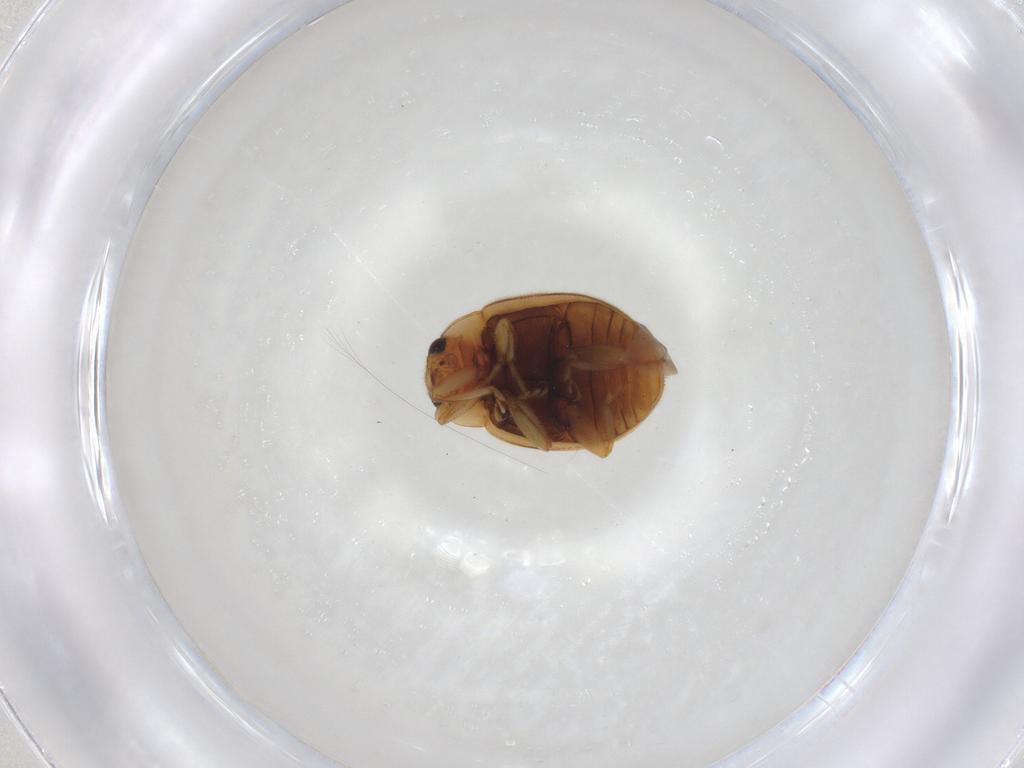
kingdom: Animalia
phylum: Arthropoda
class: Insecta
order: Coleoptera
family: Coccinellidae
